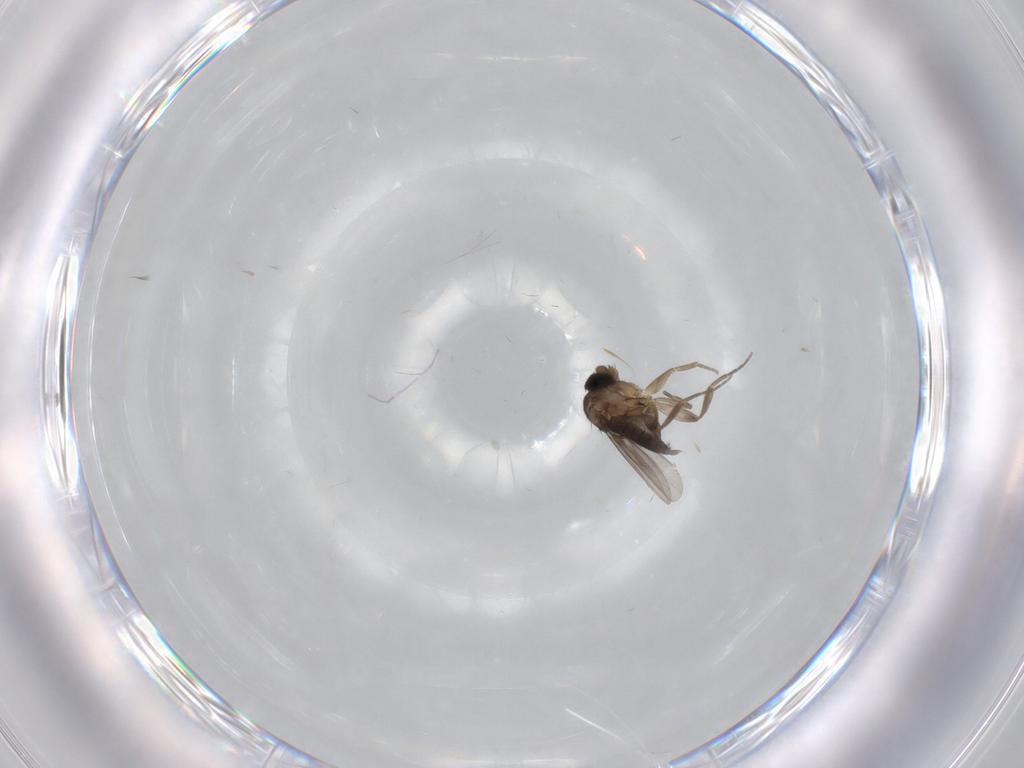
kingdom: Animalia
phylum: Arthropoda
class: Insecta
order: Diptera
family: Phoridae
